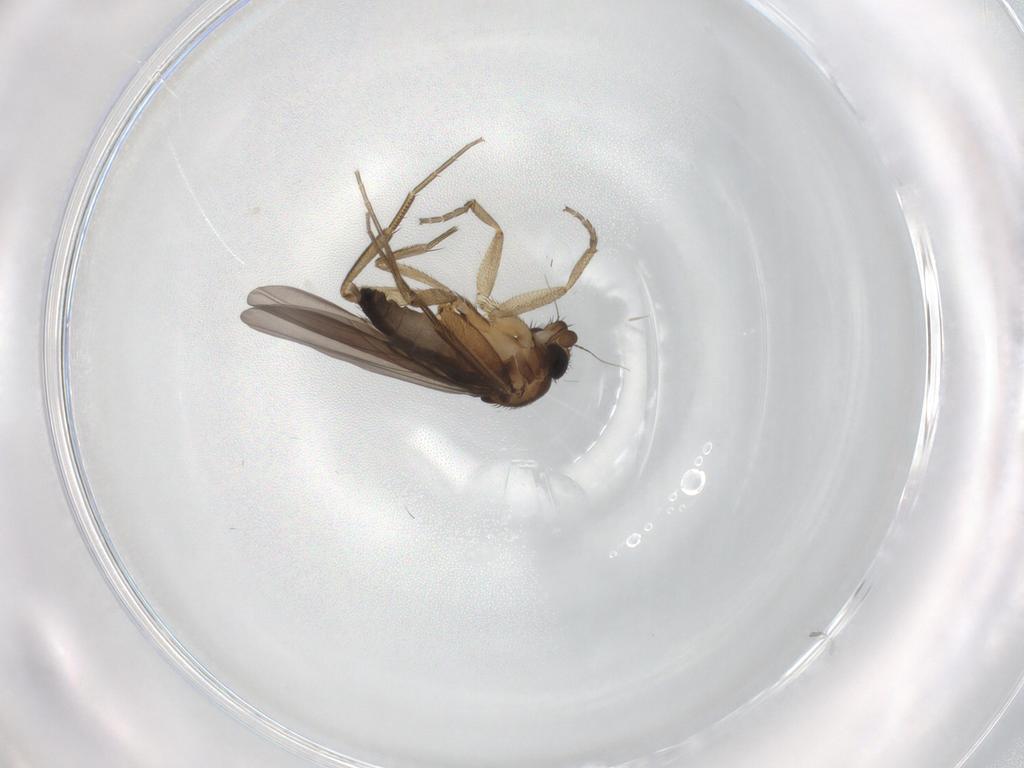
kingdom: Animalia
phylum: Arthropoda
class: Insecta
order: Diptera
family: Phoridae
